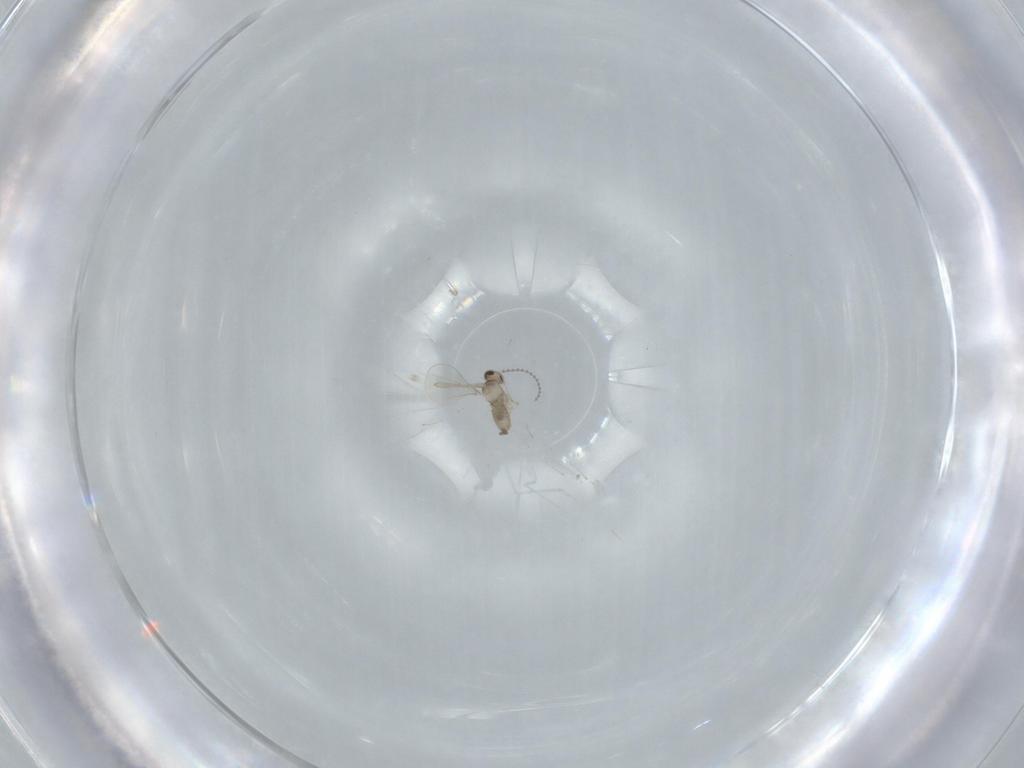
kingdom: Animalia
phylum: Arthropoda
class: Insecta
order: Diptera
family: Cecidomyiidae
